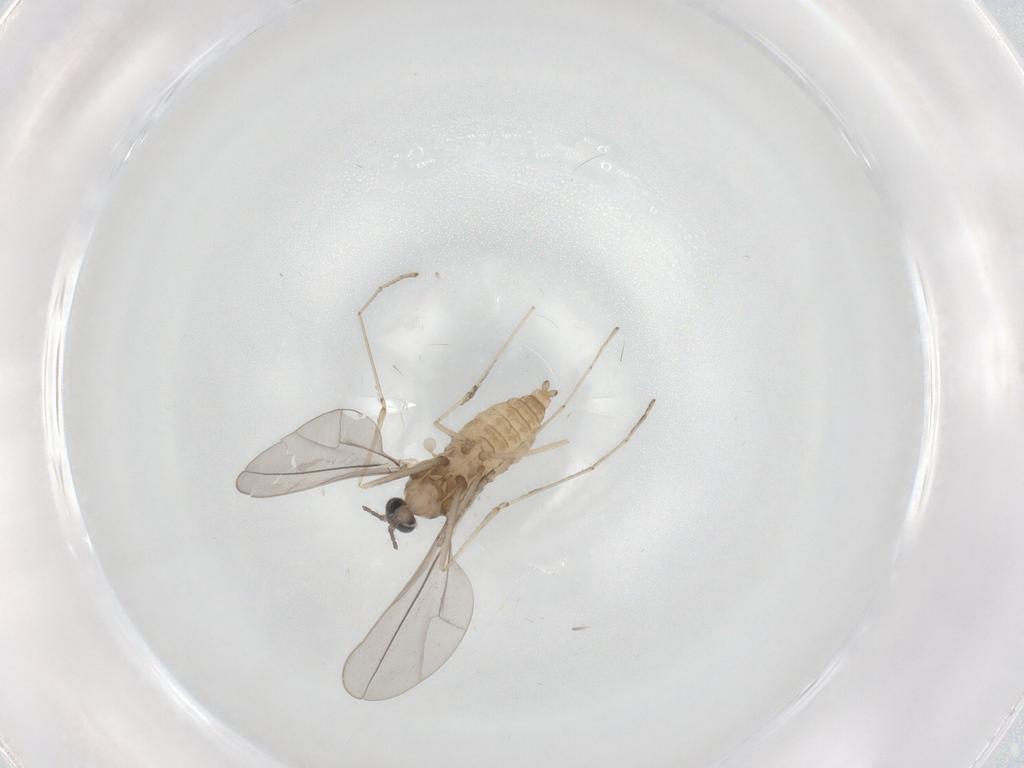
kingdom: Animalia
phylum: Arthropoda
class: Insecta
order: Diptera
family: Cecidomyiidae
